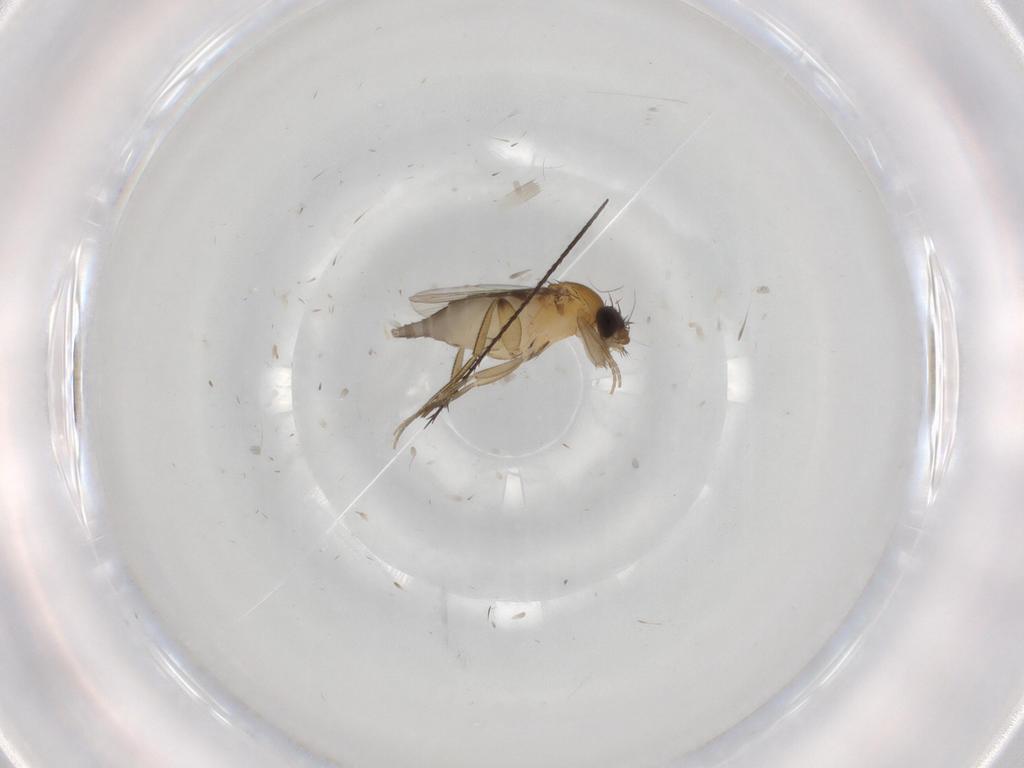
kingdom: Animalia
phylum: Arthropoda
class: Insecta
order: Diptera
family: Phoridae
